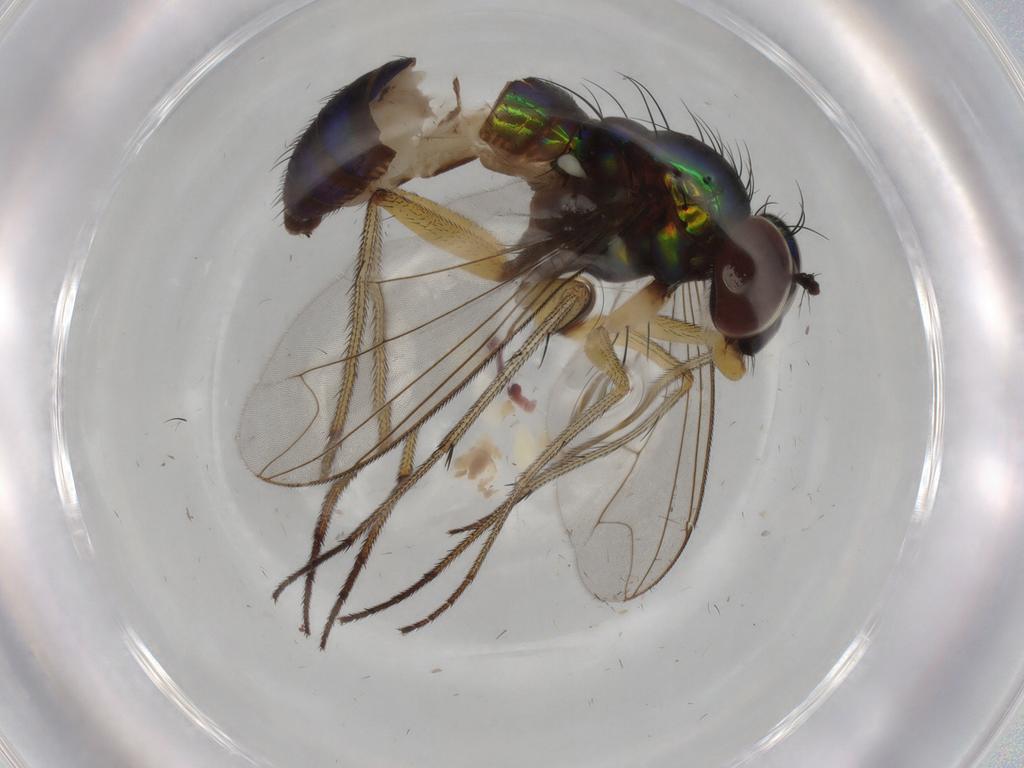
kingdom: Animalia
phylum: Arthropoda
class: Insecta
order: Diptera
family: Dolichopodidae
